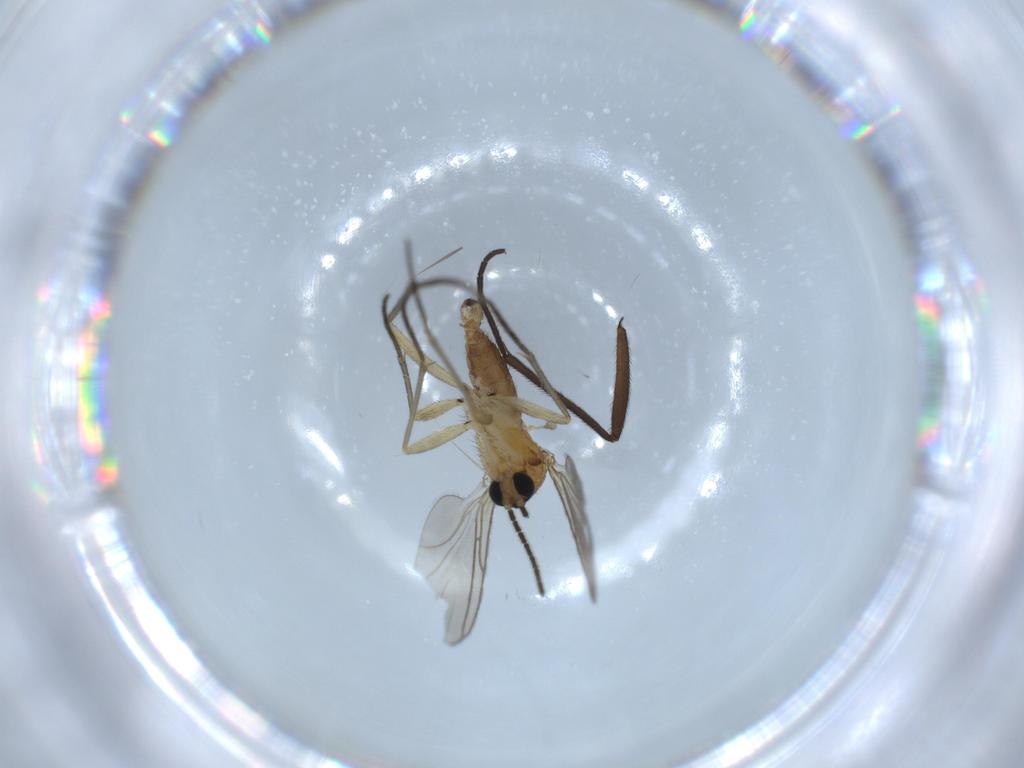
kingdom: Animalia
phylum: Arthropoda
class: Insecta
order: Diptera
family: Sciaridae
